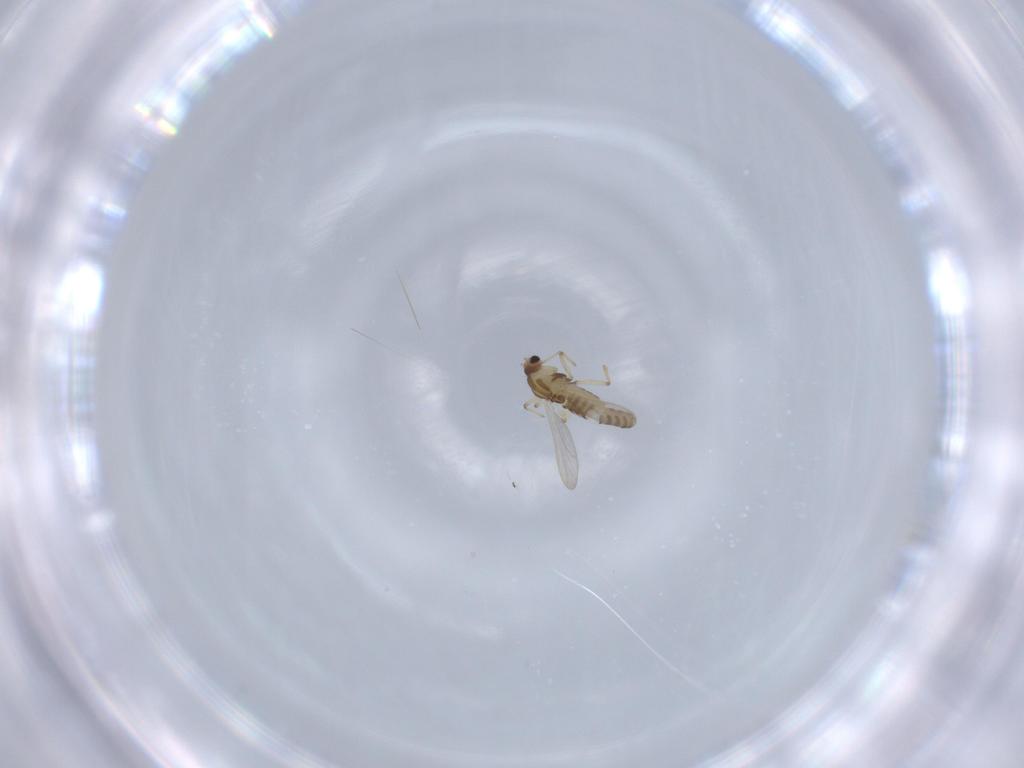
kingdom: Animalia
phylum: Arthropoda
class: Insecta
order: Diptera
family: Chironomidae
